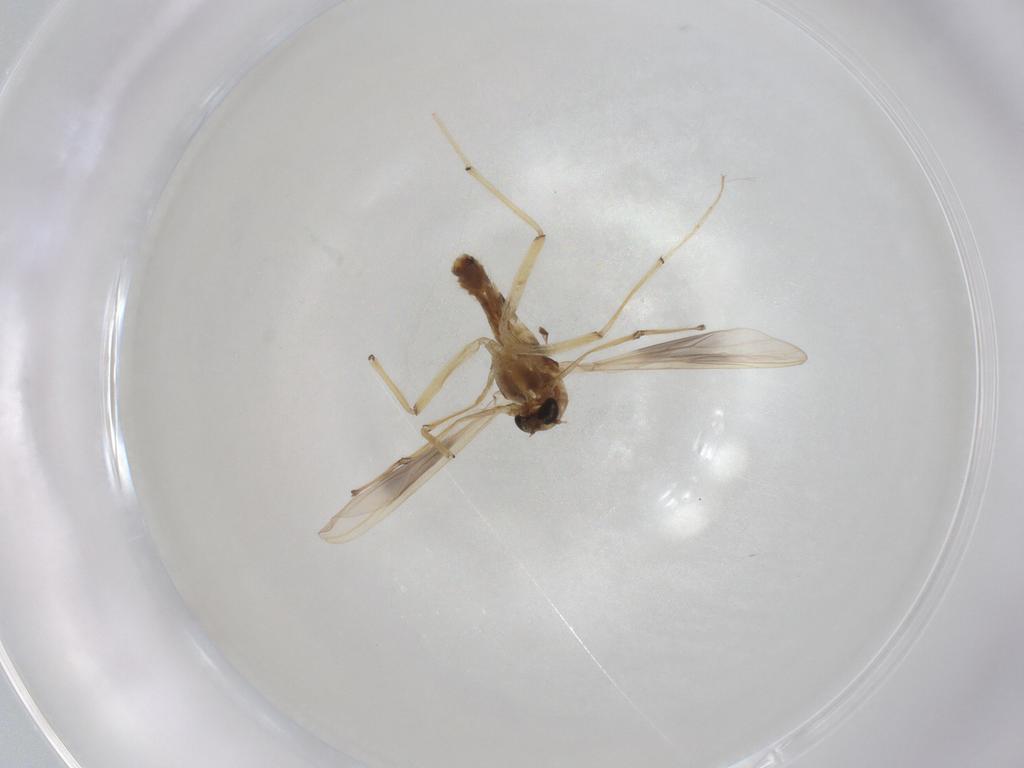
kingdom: Animalia
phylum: Arthropoda
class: Insecta
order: Diptera
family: Chironomidae
